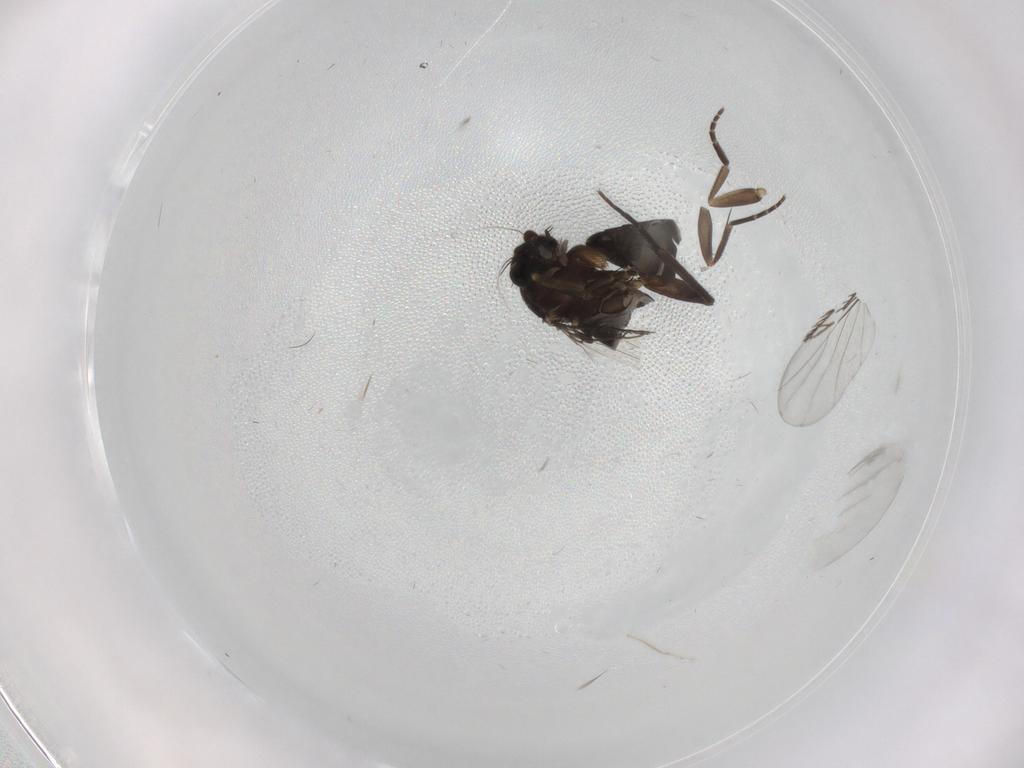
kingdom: Animalia
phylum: Arthropoda
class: Insecta
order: Diptera
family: Phoridae
